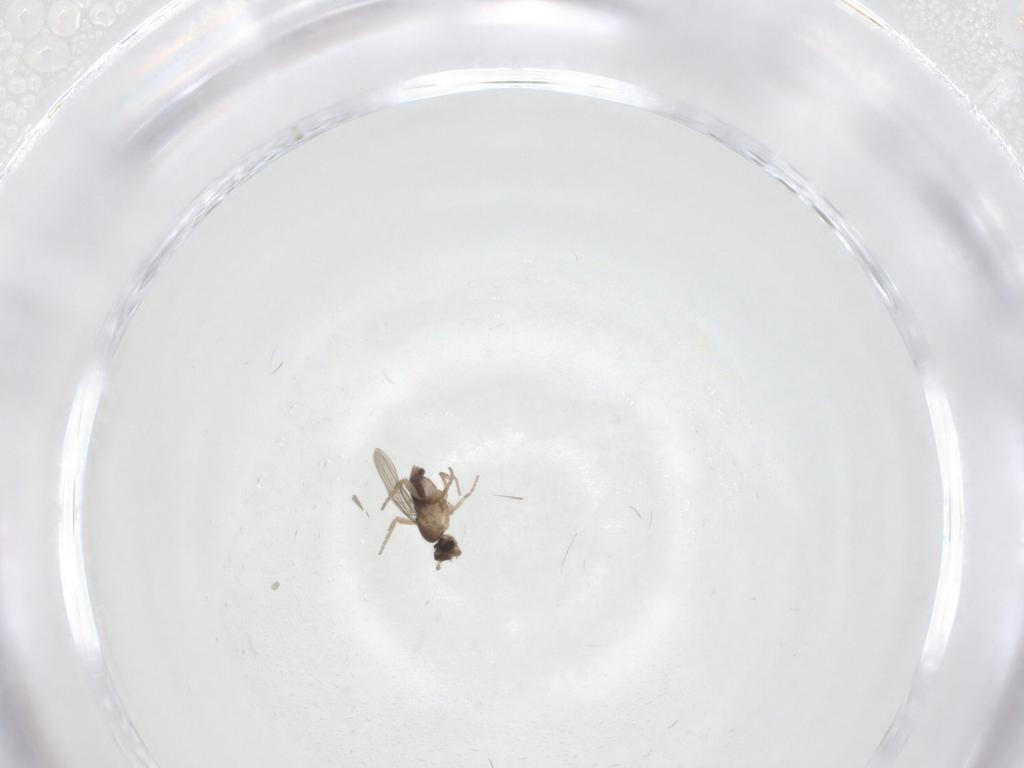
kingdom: Animalia
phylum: Arthropoda
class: Insecta
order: Diptera
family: Phoridae
